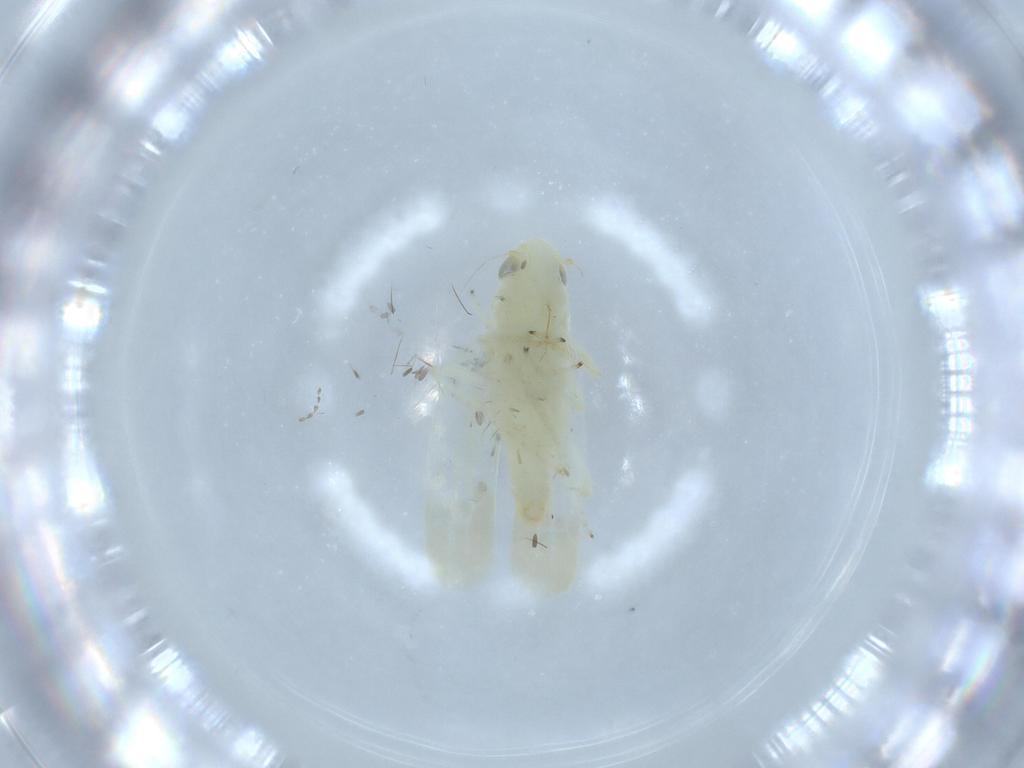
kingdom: Animalia
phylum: Arthropoda
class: Insecta
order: Hemiptera
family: Cicadellidae
